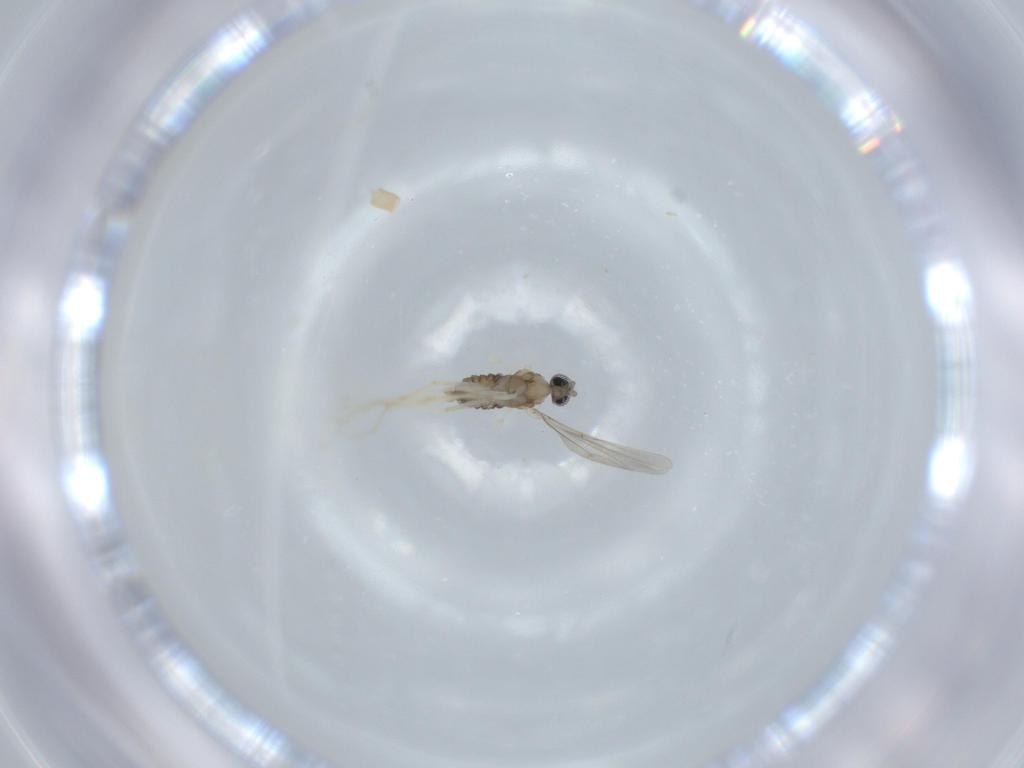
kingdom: Animalia
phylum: Arthropoda
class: Insecta
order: Diptera
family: Cecidomyiidae
